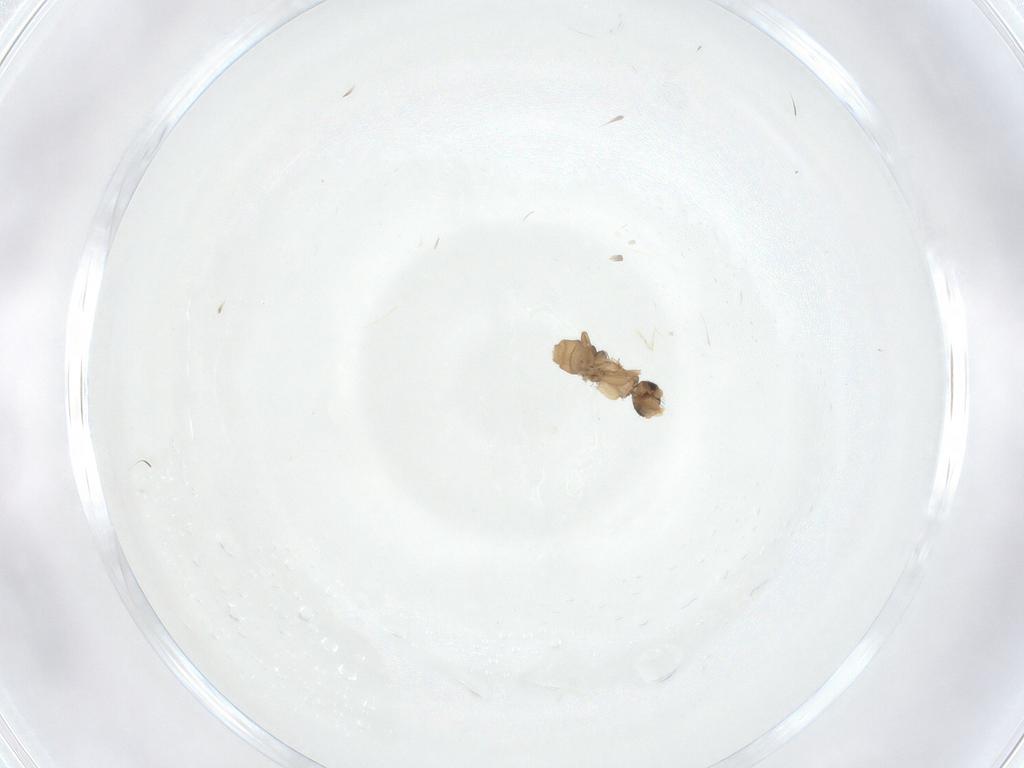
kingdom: Animalia
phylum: Arthropoda
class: Insecta
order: Diptera
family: Phoridae
